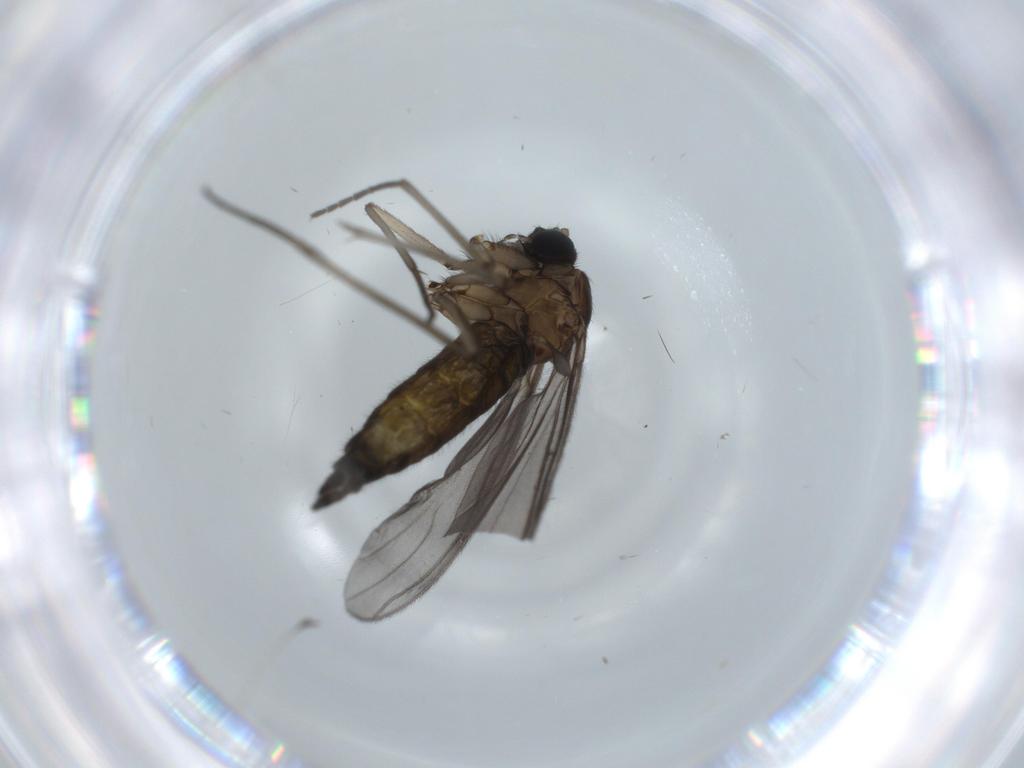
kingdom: Animalia
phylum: Arthropoda
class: Insecta
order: Diptera
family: Sciaridae
